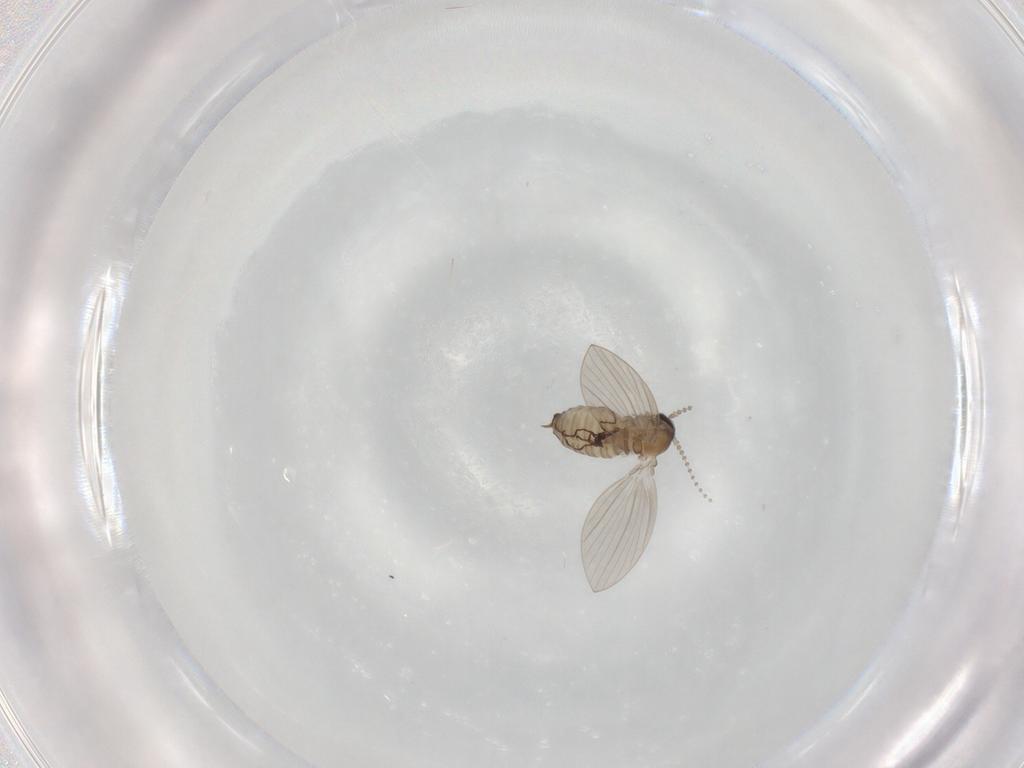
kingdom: Animalia
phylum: Arthropoda
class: Insecta
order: Diptera
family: Psychodidae
